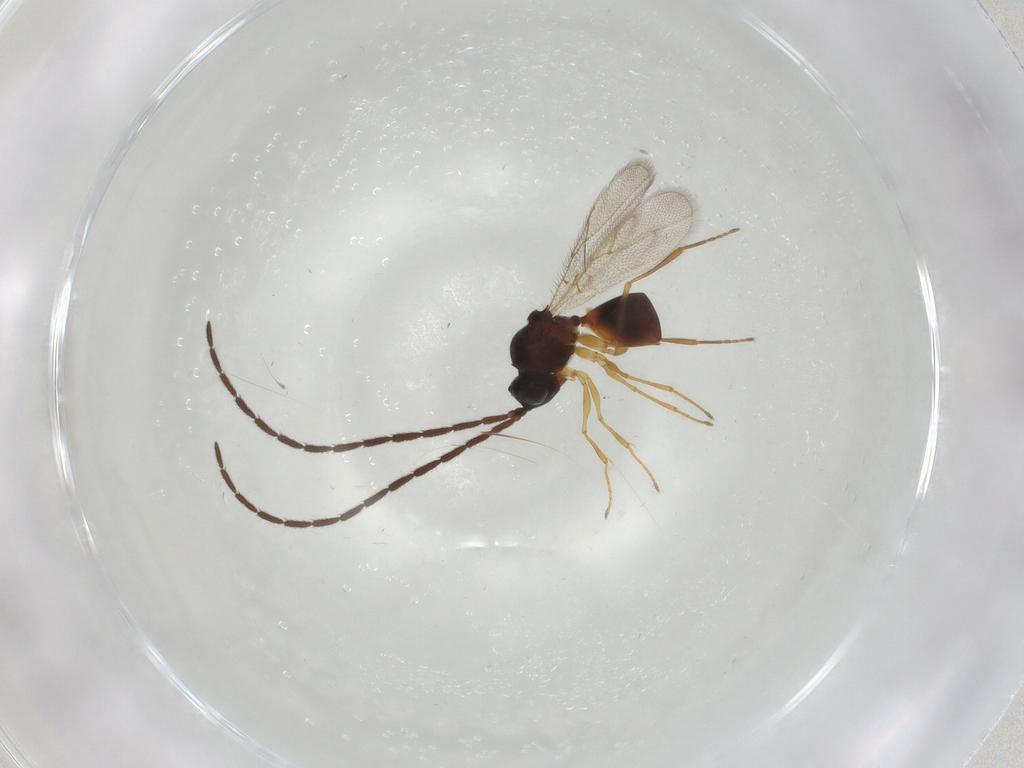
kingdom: Animalia
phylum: Arthropoda
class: Insecta
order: Hymenoptera
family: Figitidae
